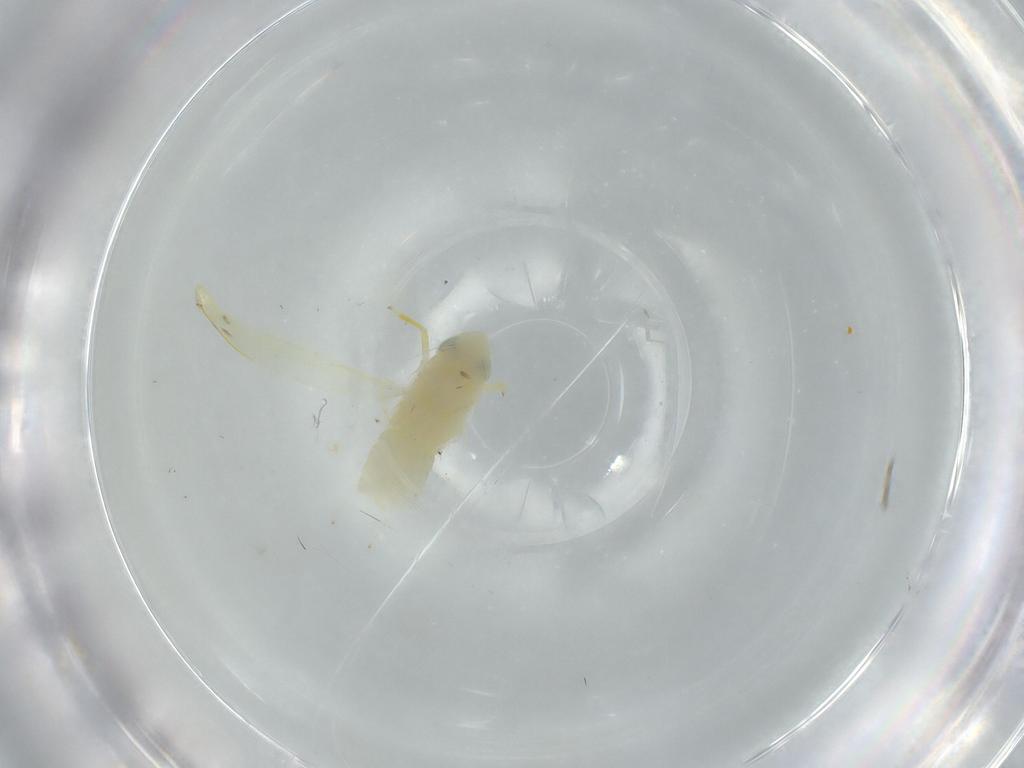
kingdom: Animalia
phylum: Arthropoda
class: Insecta
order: Hemiptera
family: Cicadellidae
